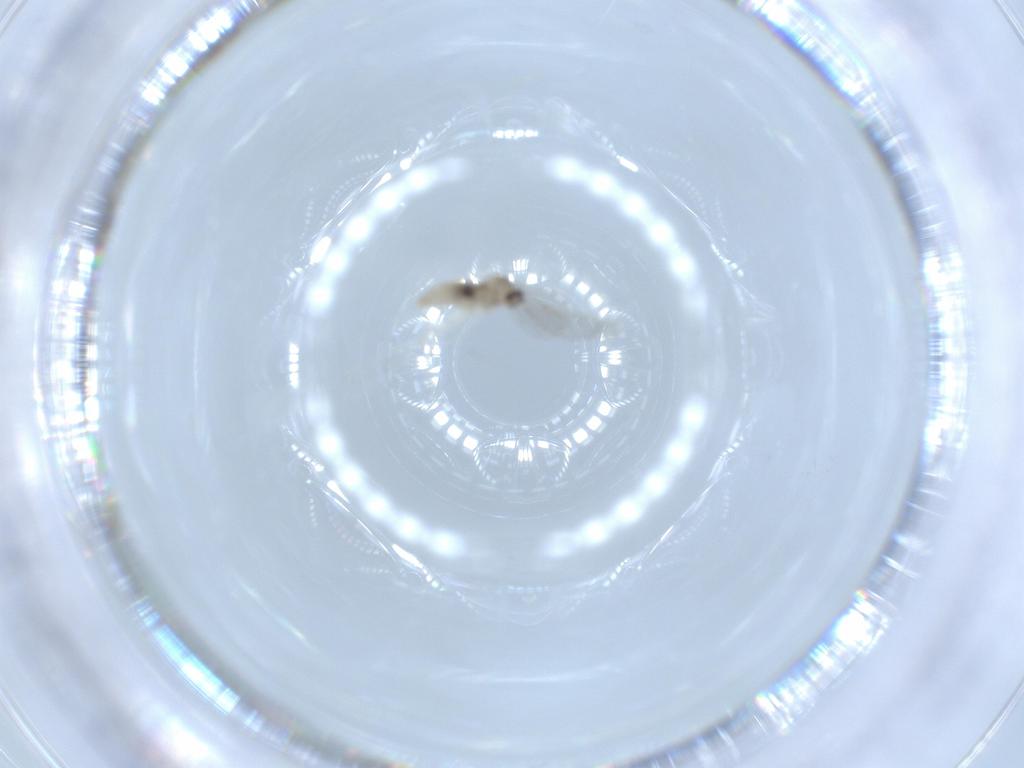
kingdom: Animalia
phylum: Arthropoda
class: Insecta
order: Diptera
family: Cecidomyiidae
